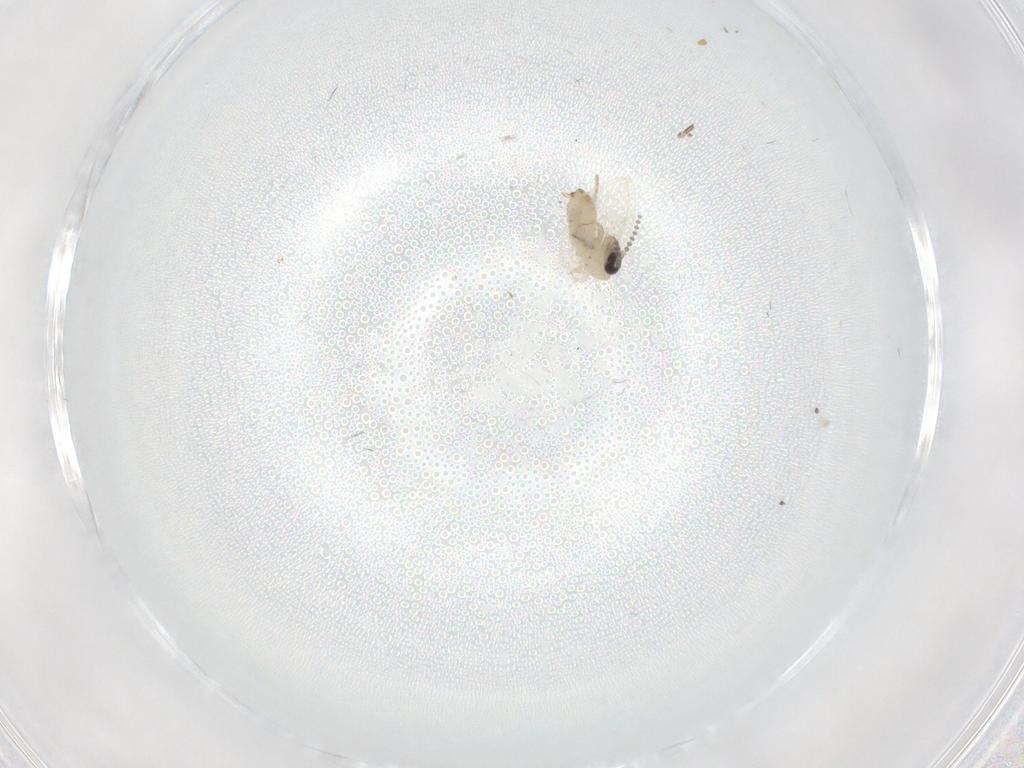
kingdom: Animalia
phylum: Arthropoda
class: Insecta
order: Diptera
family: Psychodidae
